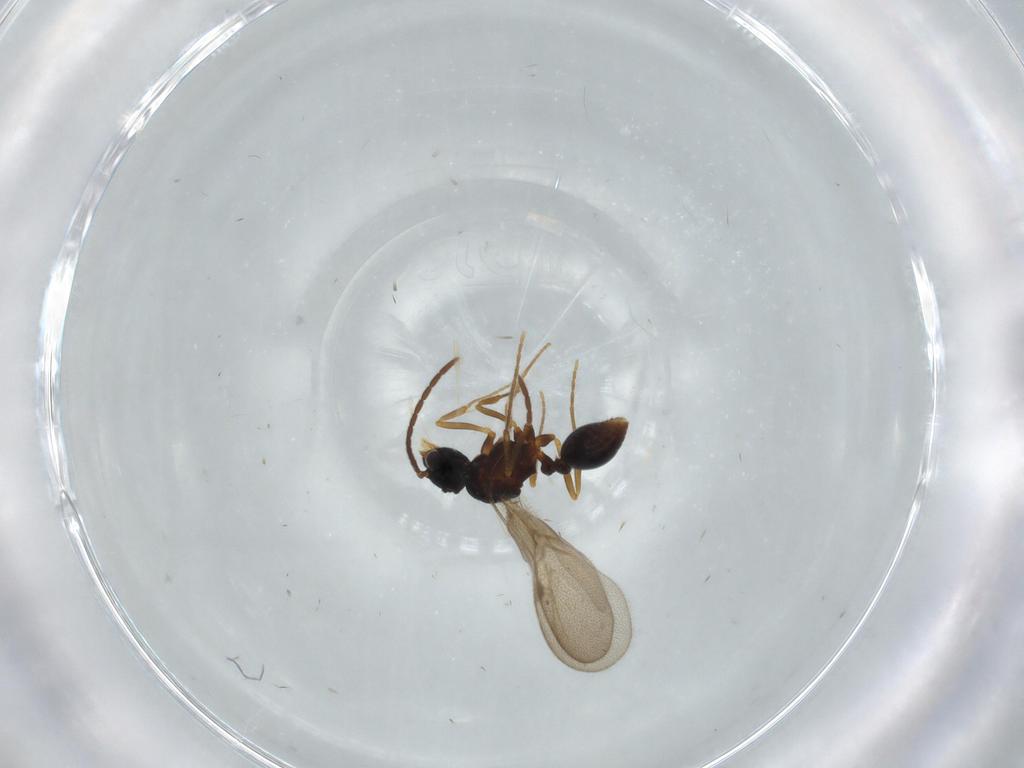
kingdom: Animalia
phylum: Arthropoda
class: Insecta
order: Hymenoptera
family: Formicidae
